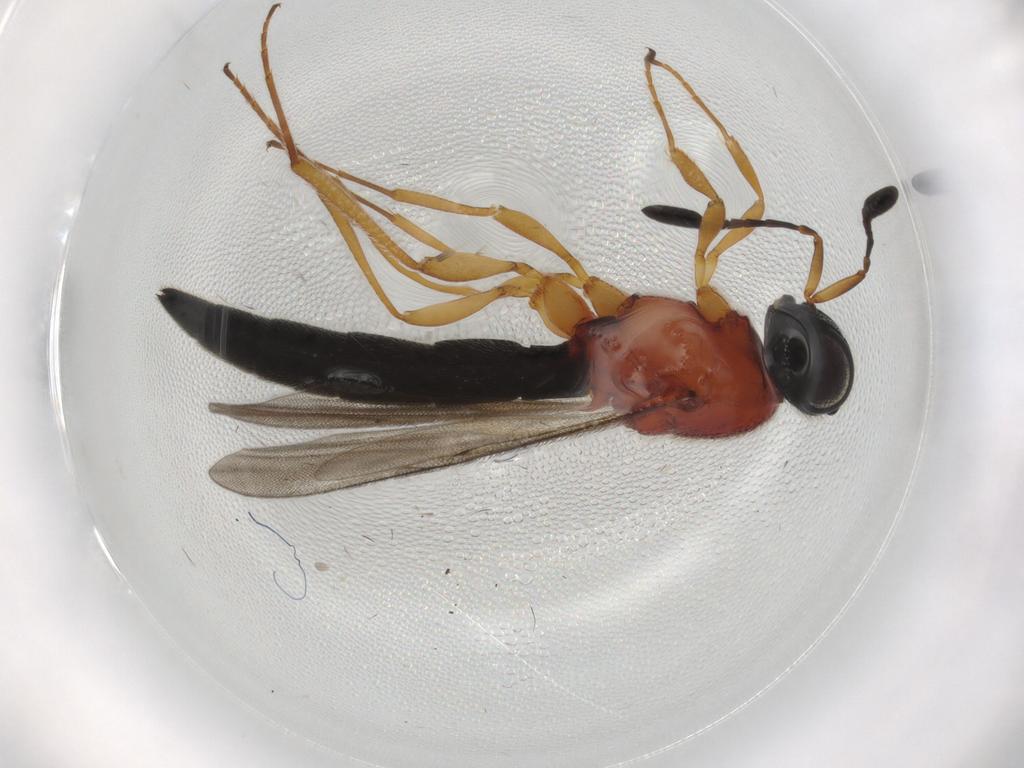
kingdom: Animalia
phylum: Arthropoda
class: Insecta
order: Hymenoptera
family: Scelionidae
